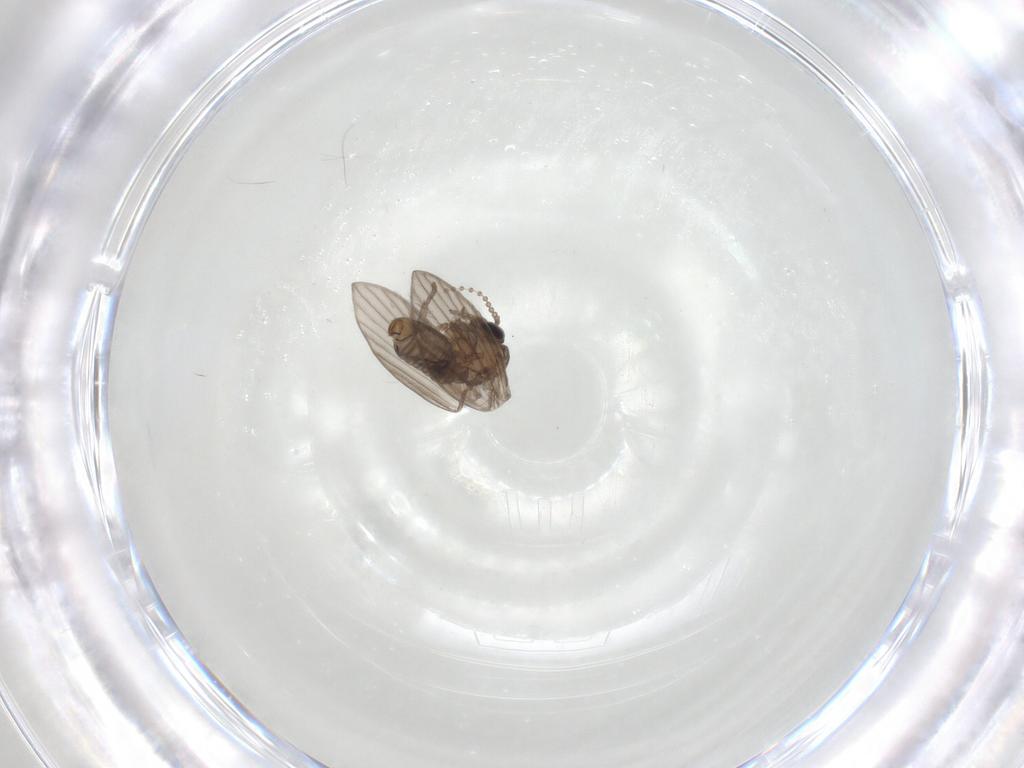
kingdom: Animalia
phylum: Arthropoda
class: Insecta
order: Diptera
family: Psychodidae
